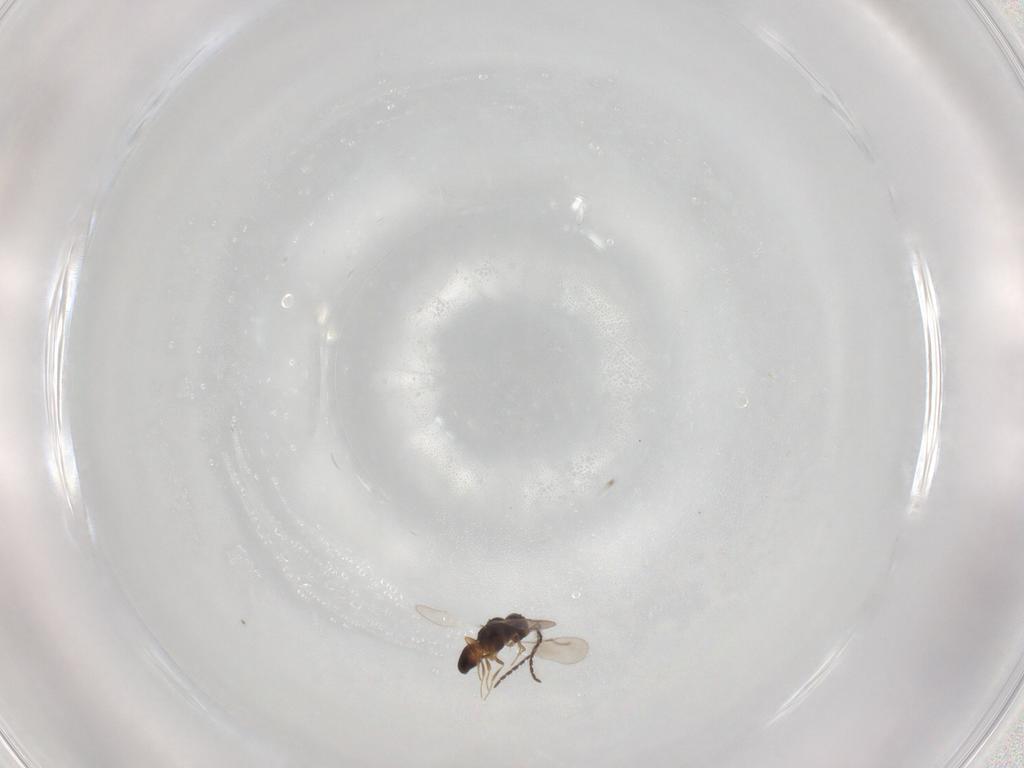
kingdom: Animalia
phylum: Arthropoda
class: Insecta
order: Hymenoptera
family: Ceraphronidae
